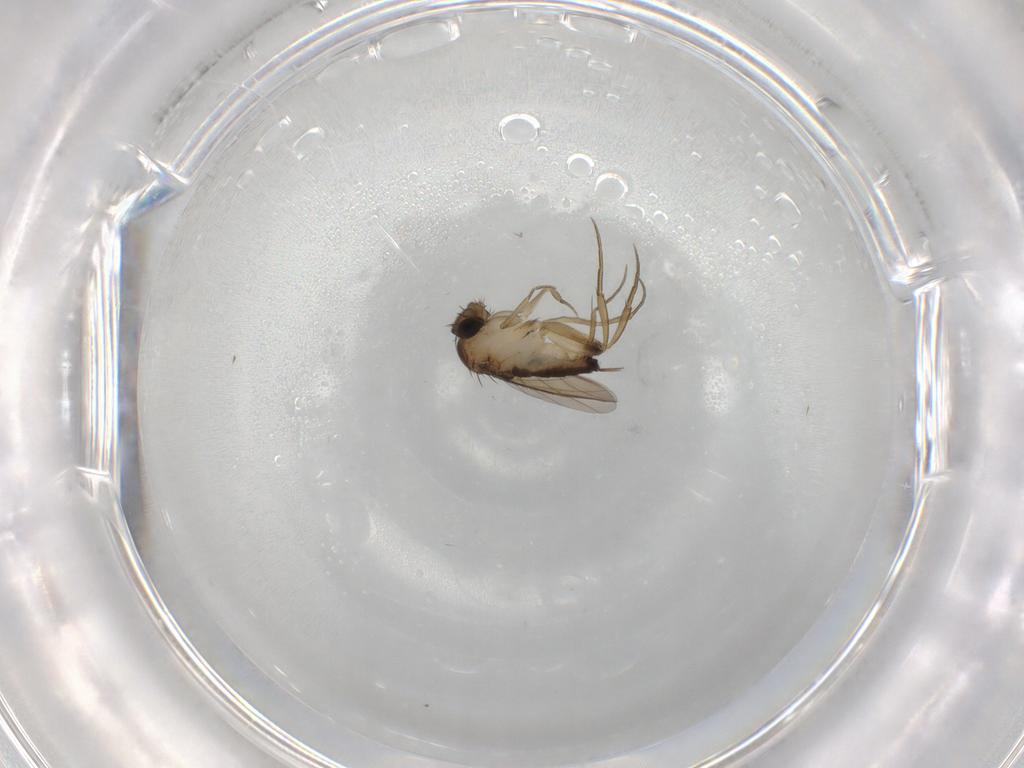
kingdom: Animalia
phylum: Arthropoda
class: Insecta
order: Diptera
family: Phoridae
